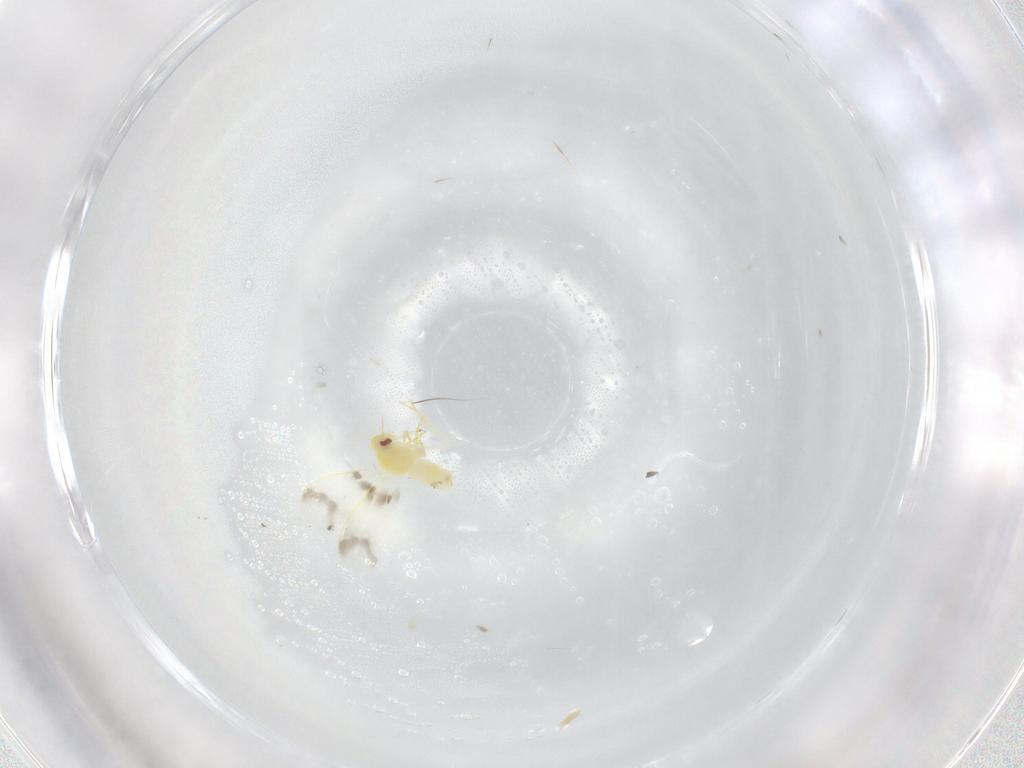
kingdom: Animalia
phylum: Arthropoda
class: Insecta
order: Hemiptera
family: Aleyrodidae
